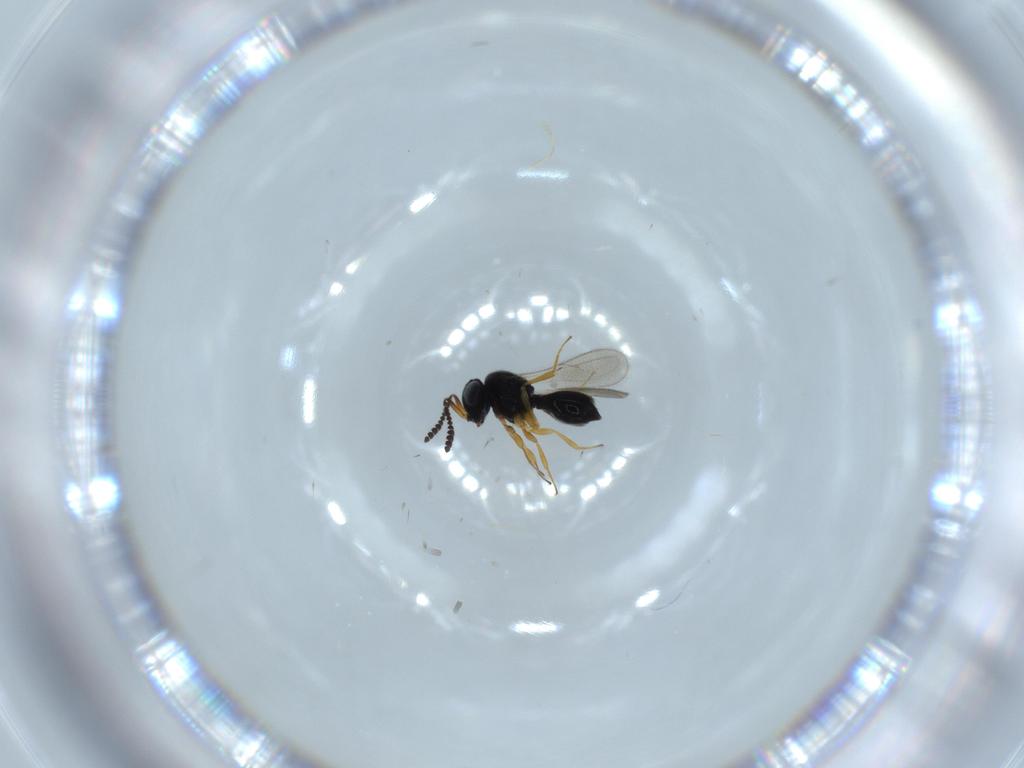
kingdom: Animalia
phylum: Arthropoda
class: Insecta
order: Hymenoptera
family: Scelionidae
